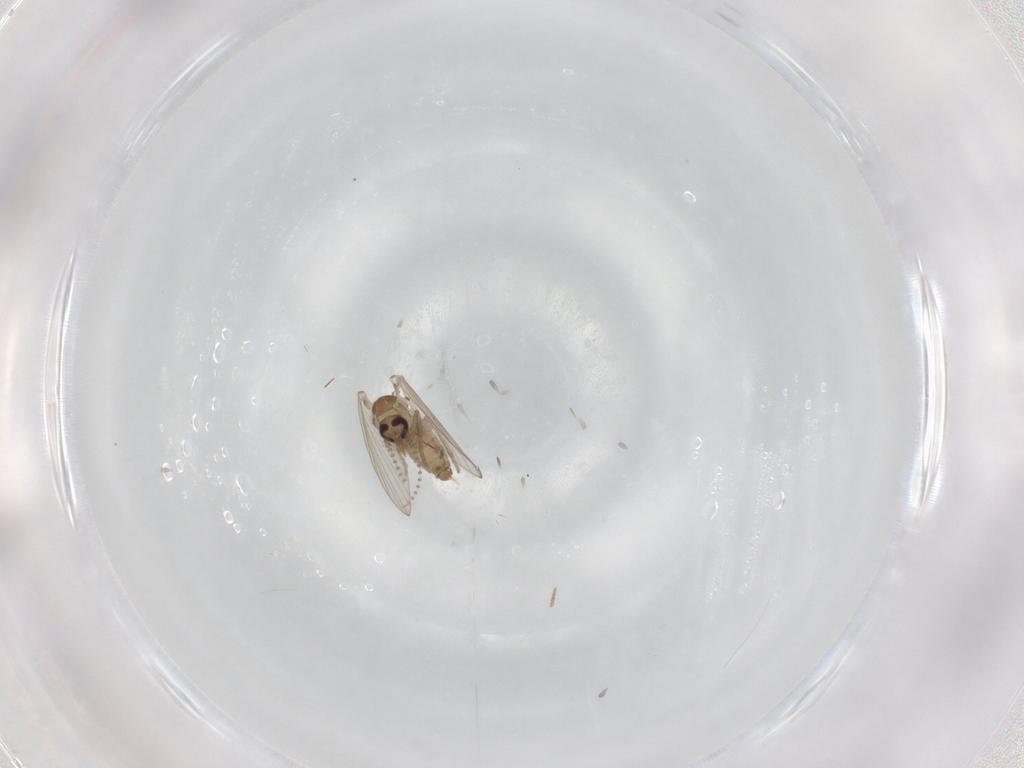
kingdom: Animalia
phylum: Arthropoda
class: Insecta
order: Diptera
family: Psychodidae
